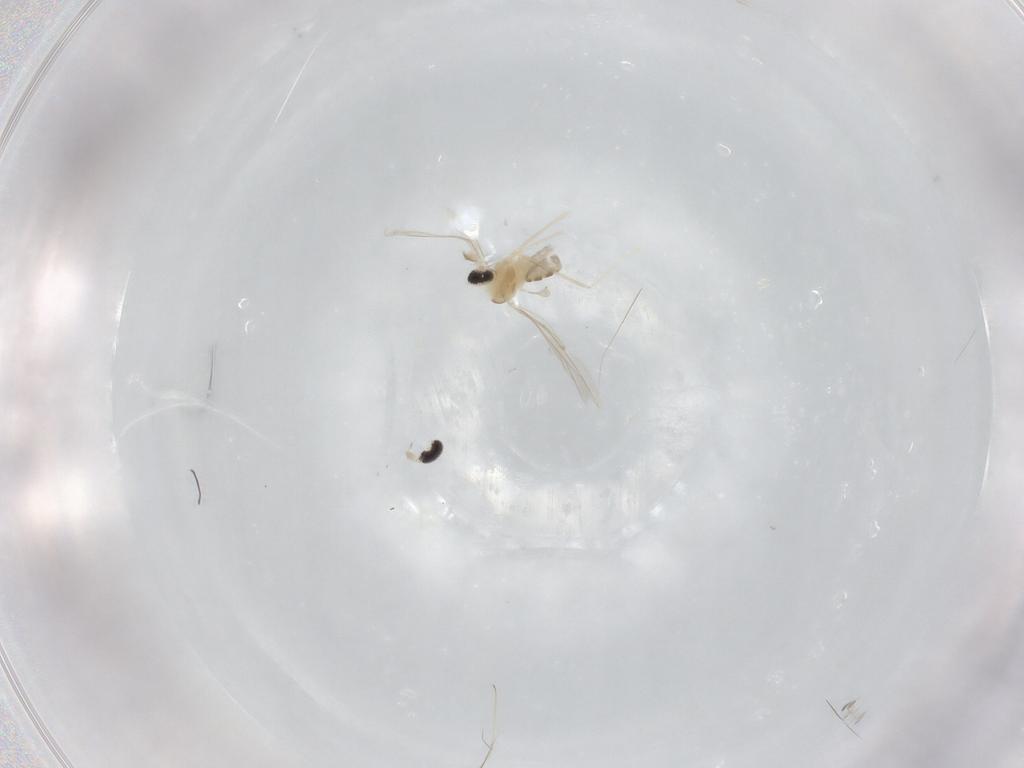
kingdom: Animalia
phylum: Arthropoda
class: Insecta
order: Diptera
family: Cecidomyiidae
